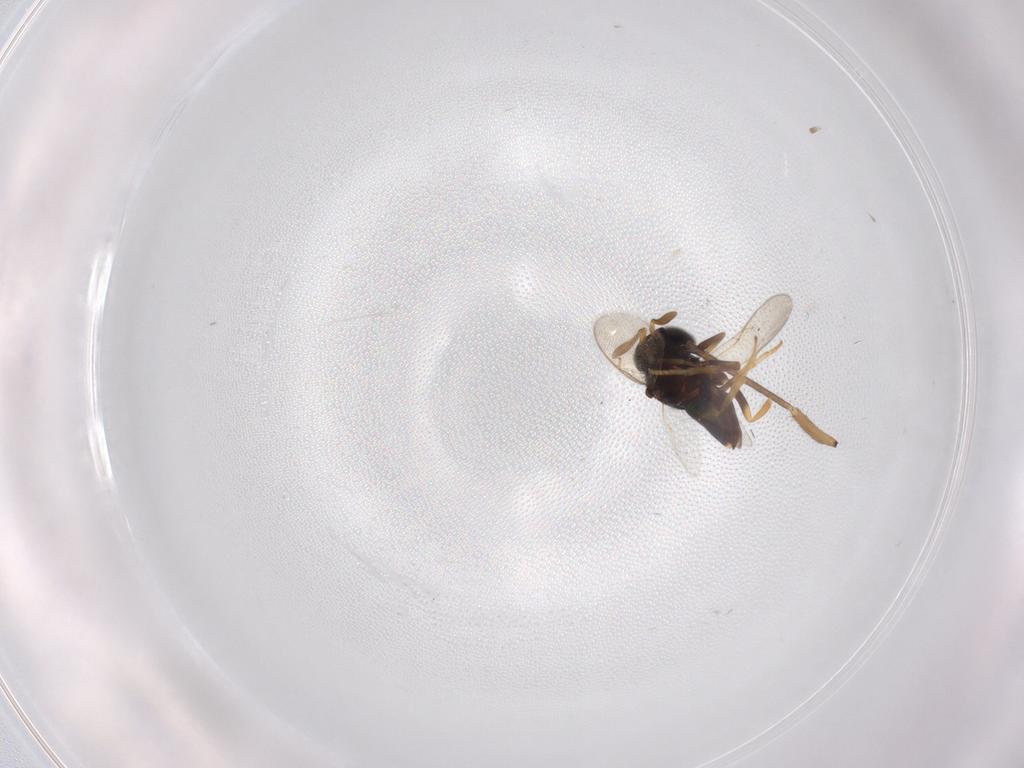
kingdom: Animalia
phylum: Arthropoda
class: Insecta
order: Hymenoptera
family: Encyrtidae
